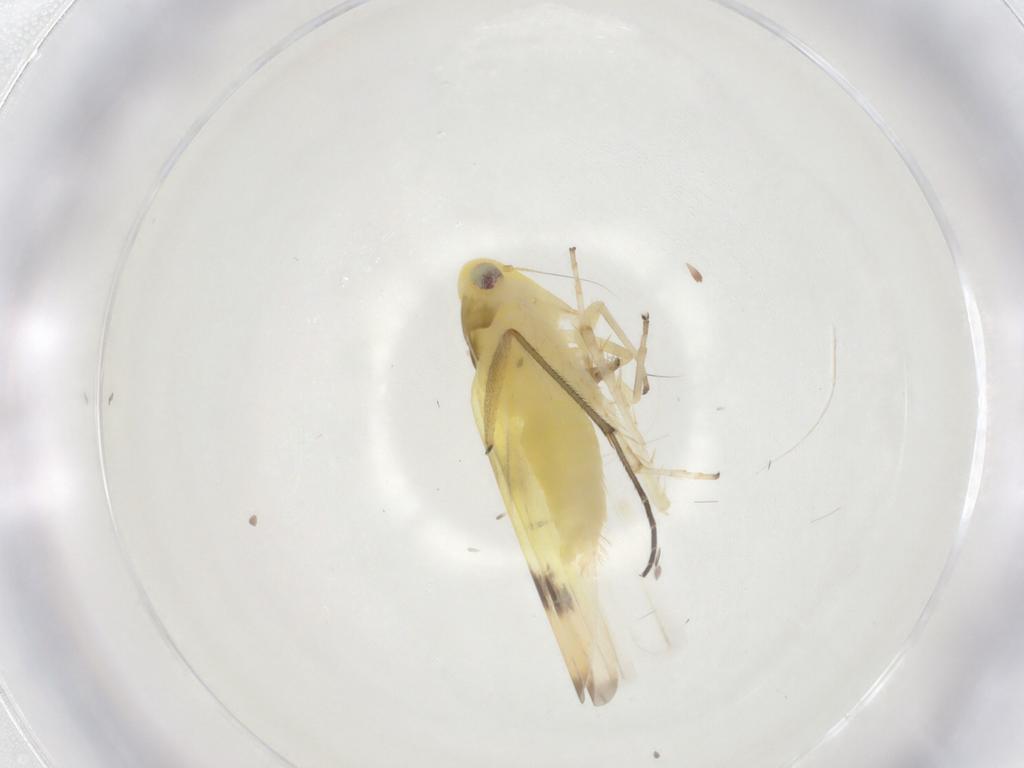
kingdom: Animalia
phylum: Arthropoda
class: Insecta
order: Hemiptera
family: Cicadellidae
